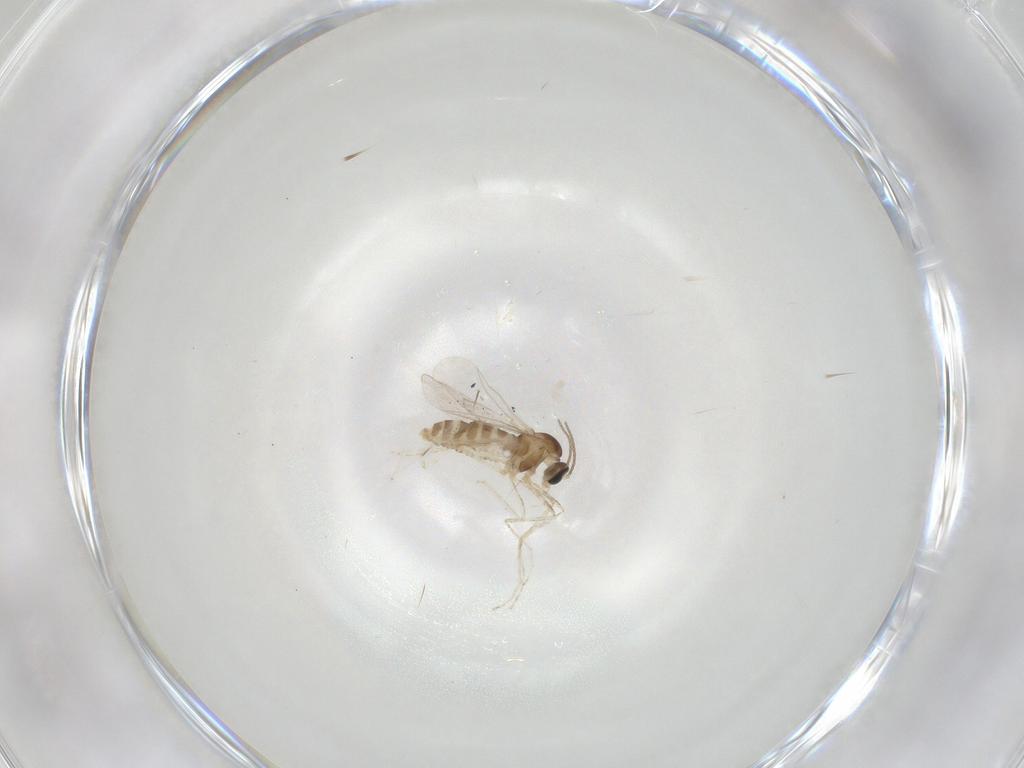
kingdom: Animalia
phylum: Arthropoda
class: Insecta
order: Diptera
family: Cecidomyiidae
